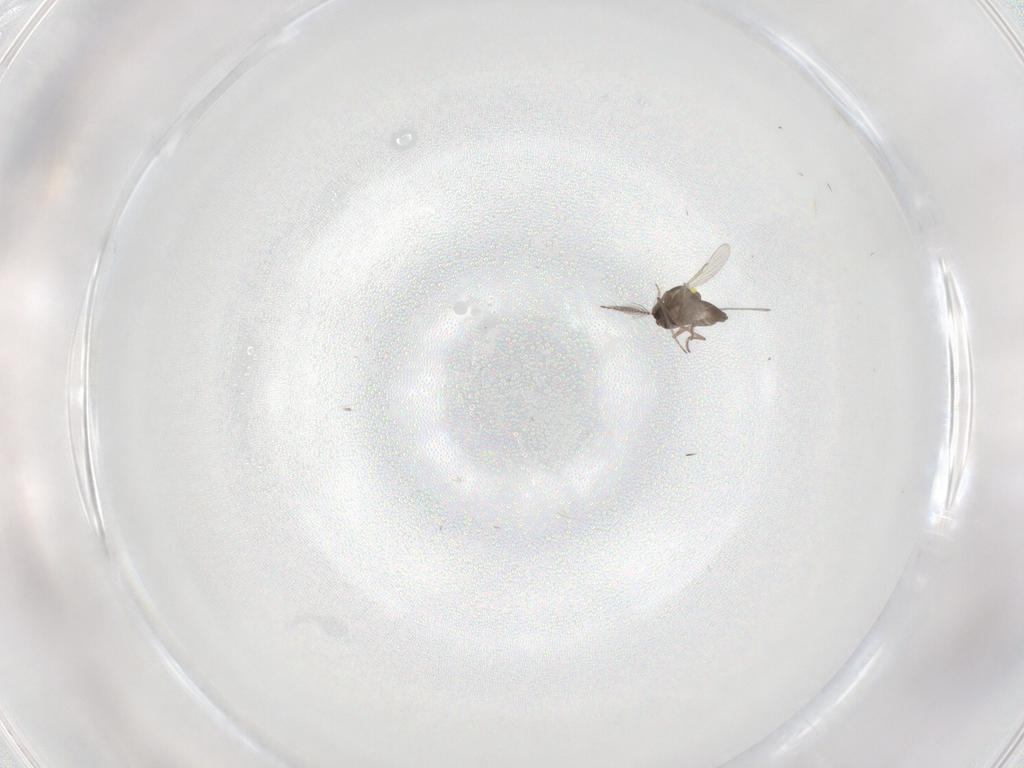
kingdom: Animalia
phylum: Arthropoda
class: Insecta
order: Diptera
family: Ceratopogonidae
